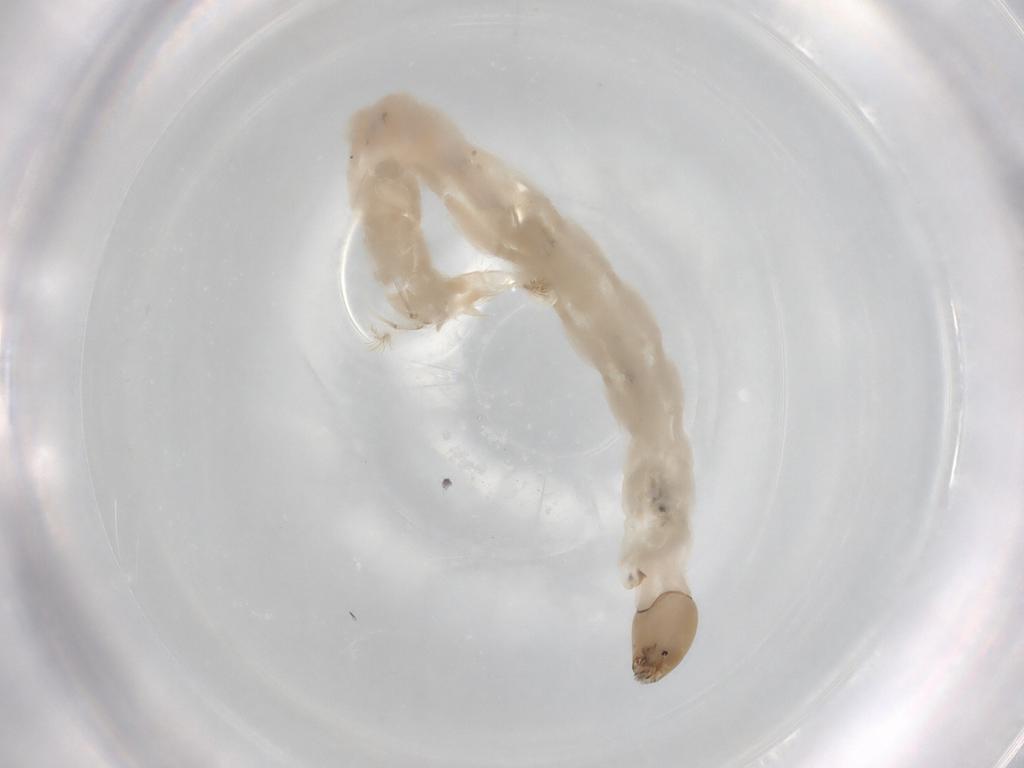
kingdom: Animalia
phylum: Arthropoda
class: Insecta
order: Diptera
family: Chironomidae
